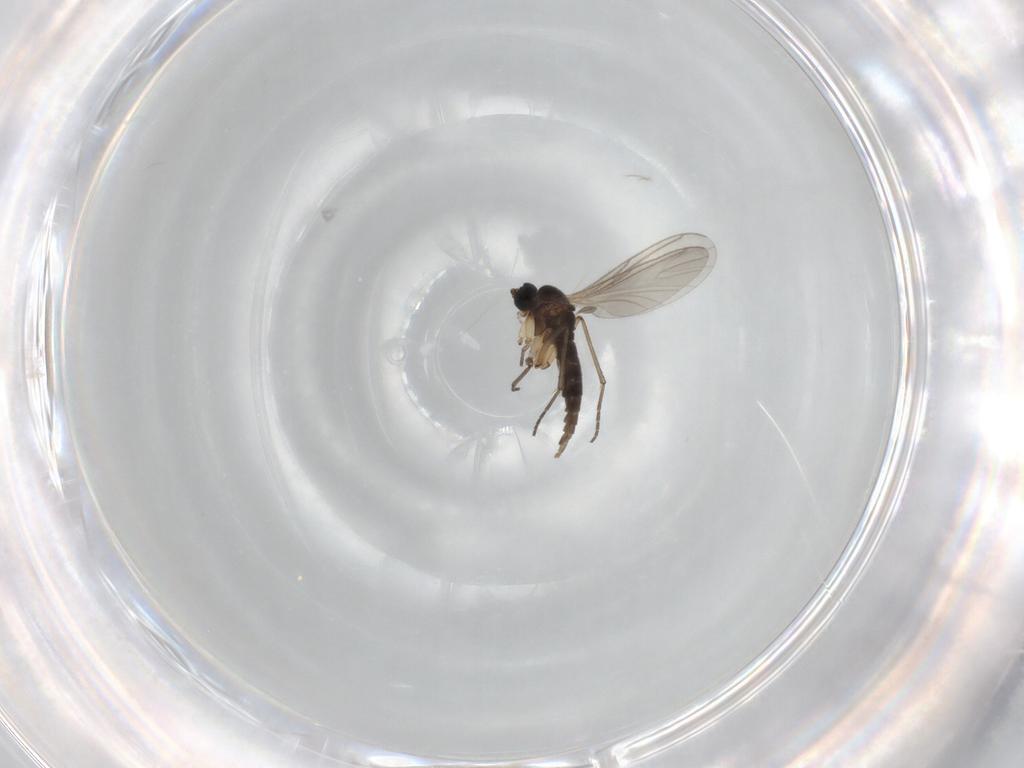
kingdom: Animalia
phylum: Arthropoda
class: Insecta
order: Diptera
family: Sciaridae
